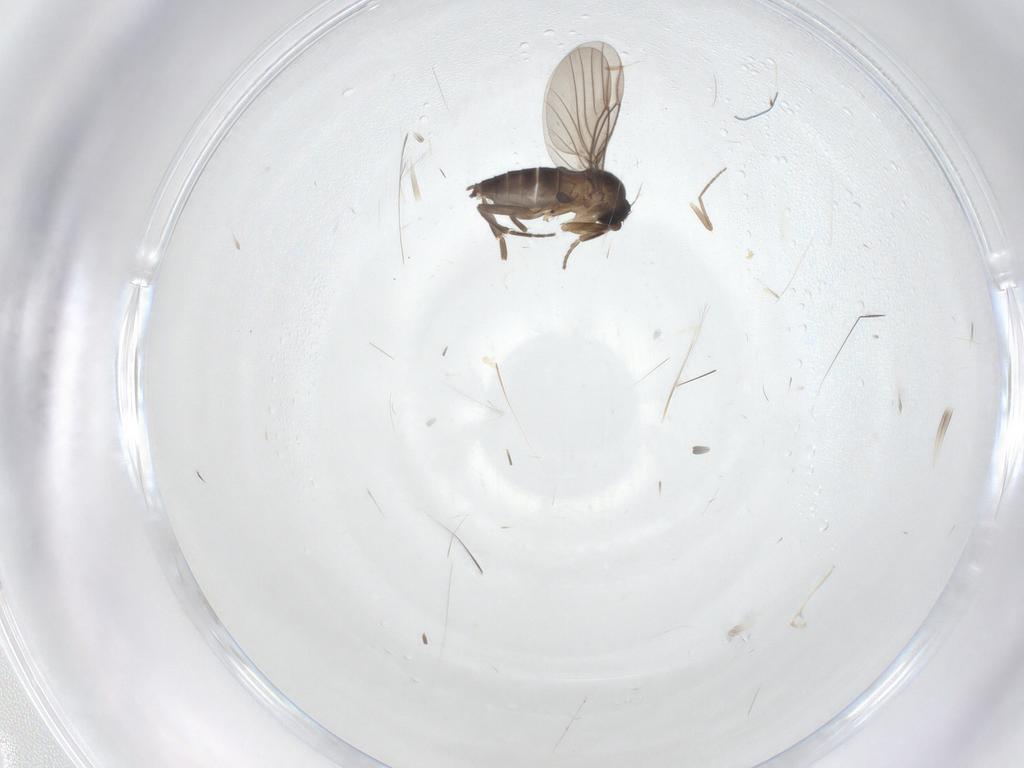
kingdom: Animalia
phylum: Arthropoda
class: Insecta
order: Diptera
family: Chironomidae
